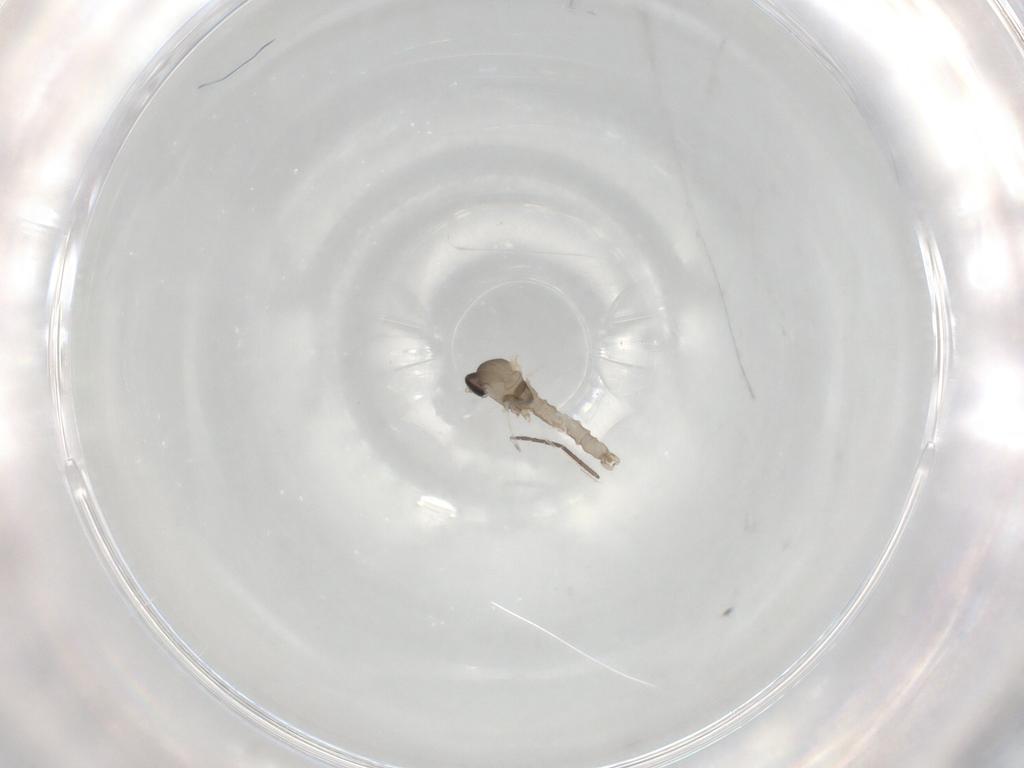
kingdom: Animalia
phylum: Arthropoda
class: Insecta
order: Diptera
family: Cecidomyiidae
